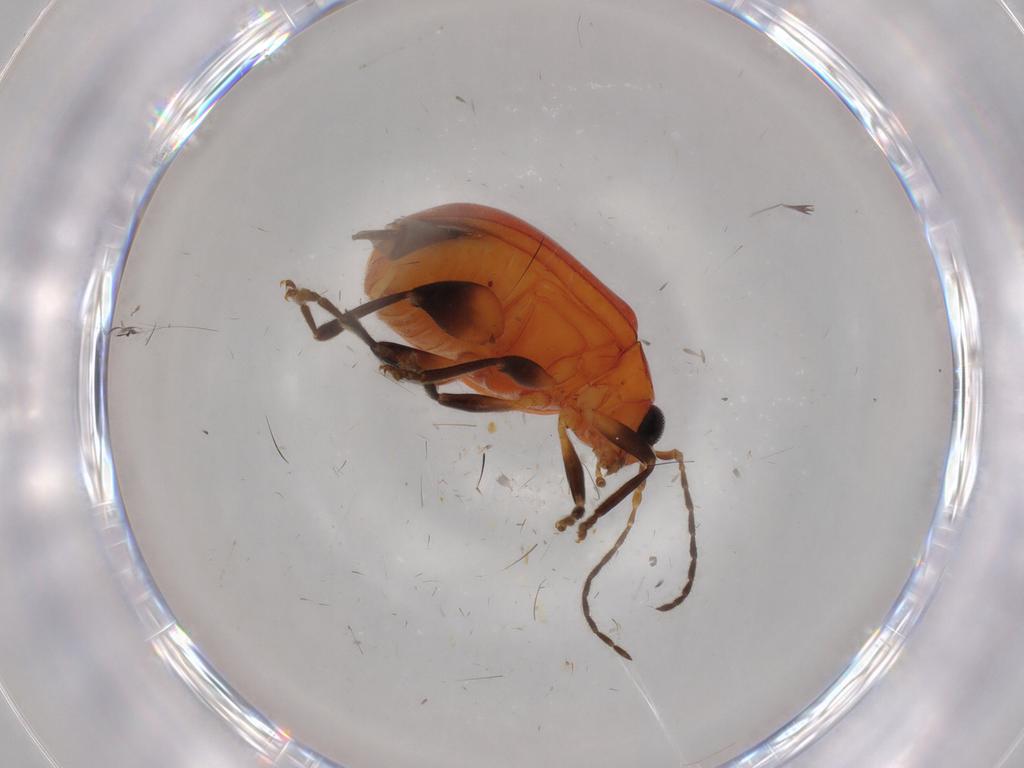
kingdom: Animalia
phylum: Arthropoda
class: Insecta
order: Coleoptera
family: Chrysomelidae
